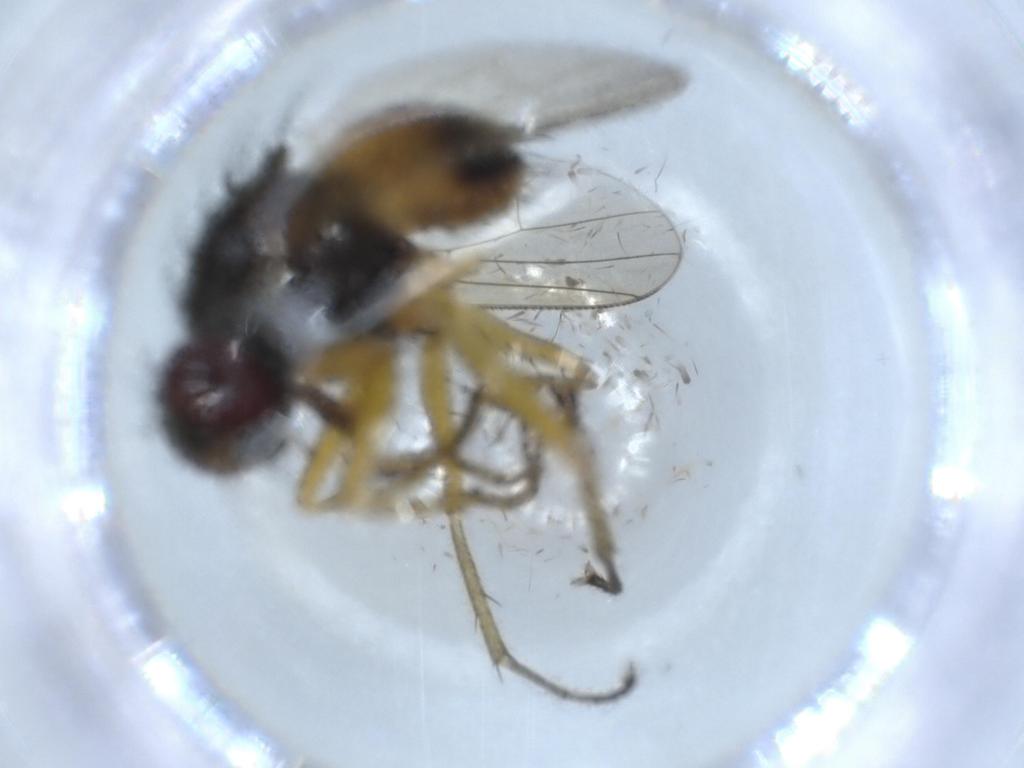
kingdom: Animalia
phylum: Arthropoda
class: Insecta
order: Diptera
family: Muscidae
